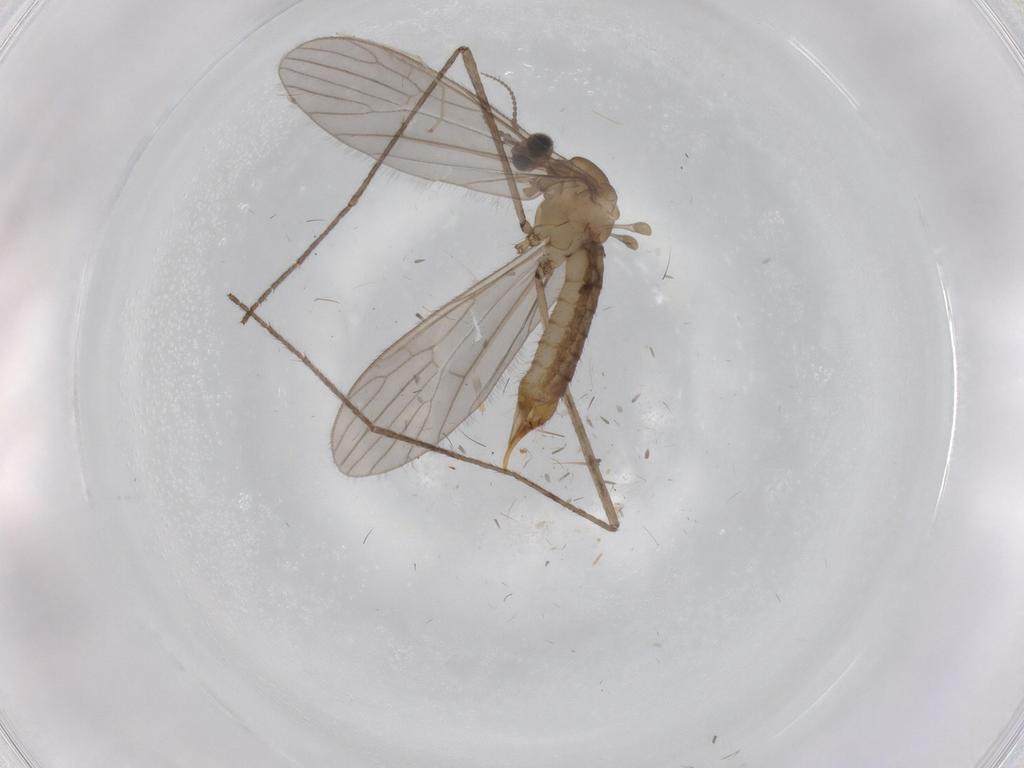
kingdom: Animalia
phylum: Arthropoda
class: Insecta
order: Diptera
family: Limoniidae
